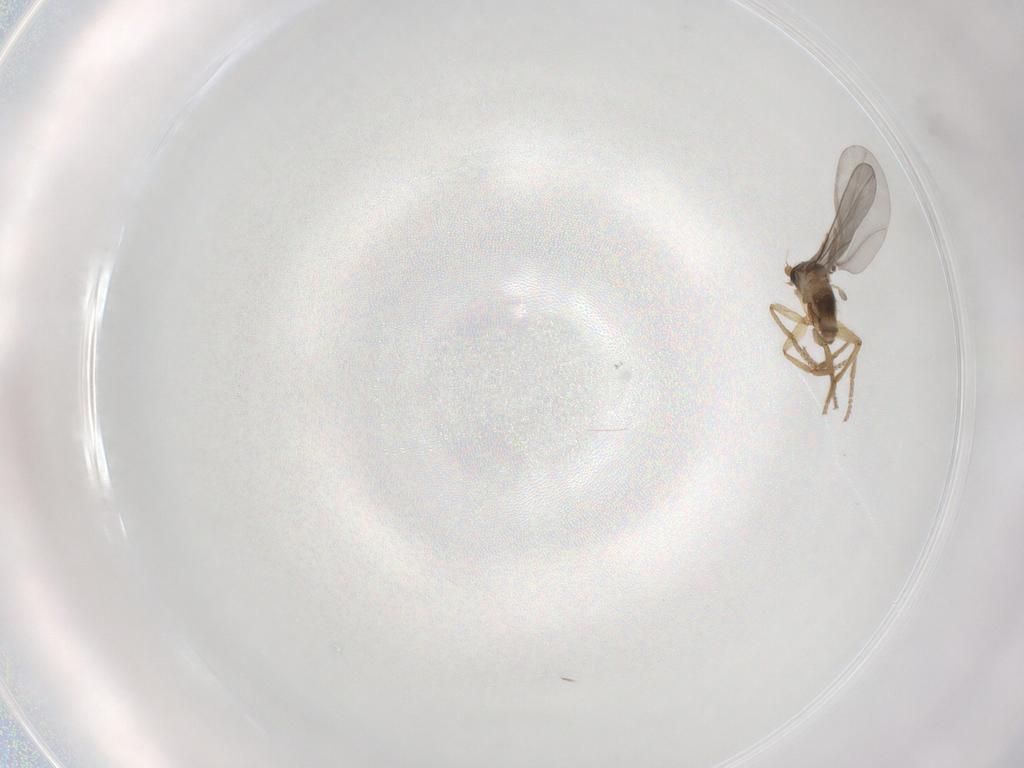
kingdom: Animalia
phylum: Arthropoda
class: Insecta
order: Diptera
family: Phoridae
